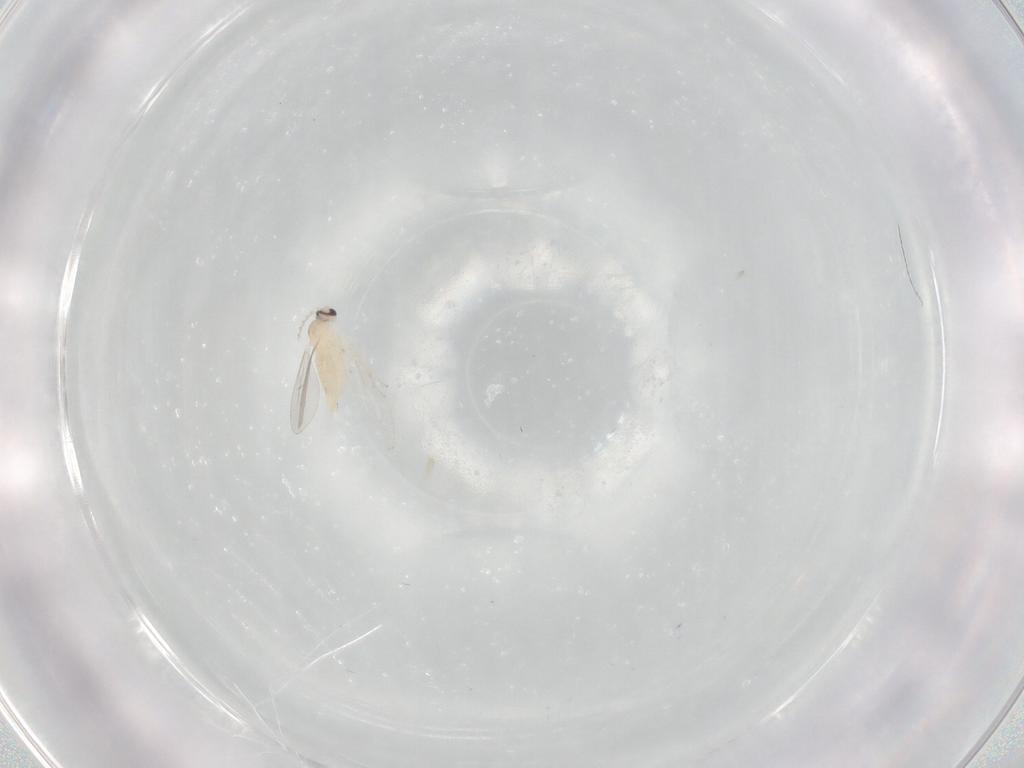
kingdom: Animalia
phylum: Arthropoda
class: Insecta
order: Diptera
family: Cecidomyiidae
